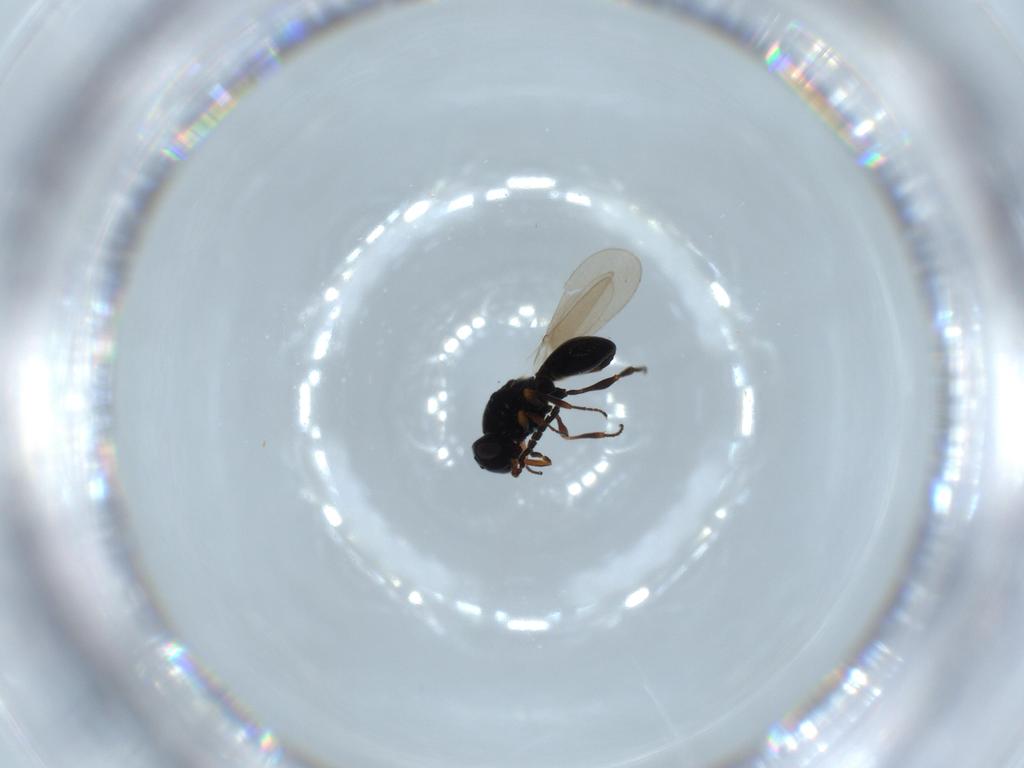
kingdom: Animalia
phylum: Arthropoda
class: Insecta
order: Hymenoptera
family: Platygastridae
